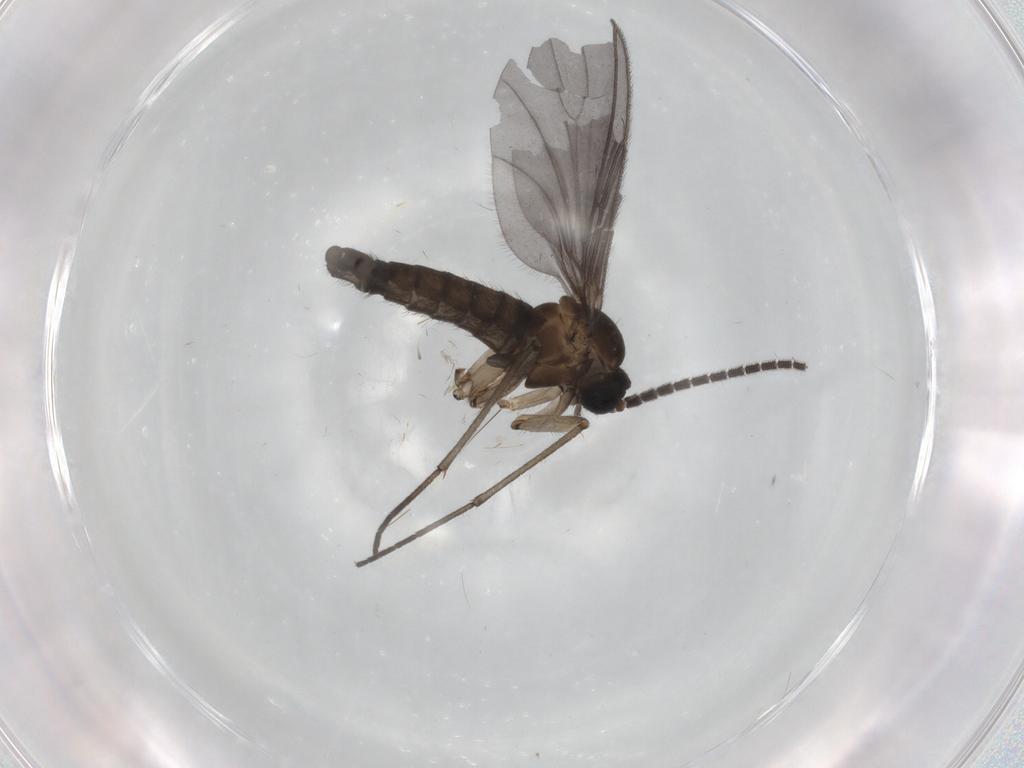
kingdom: Animalia
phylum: Arthropoda
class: Insecta
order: Diptera
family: Sciaridae
